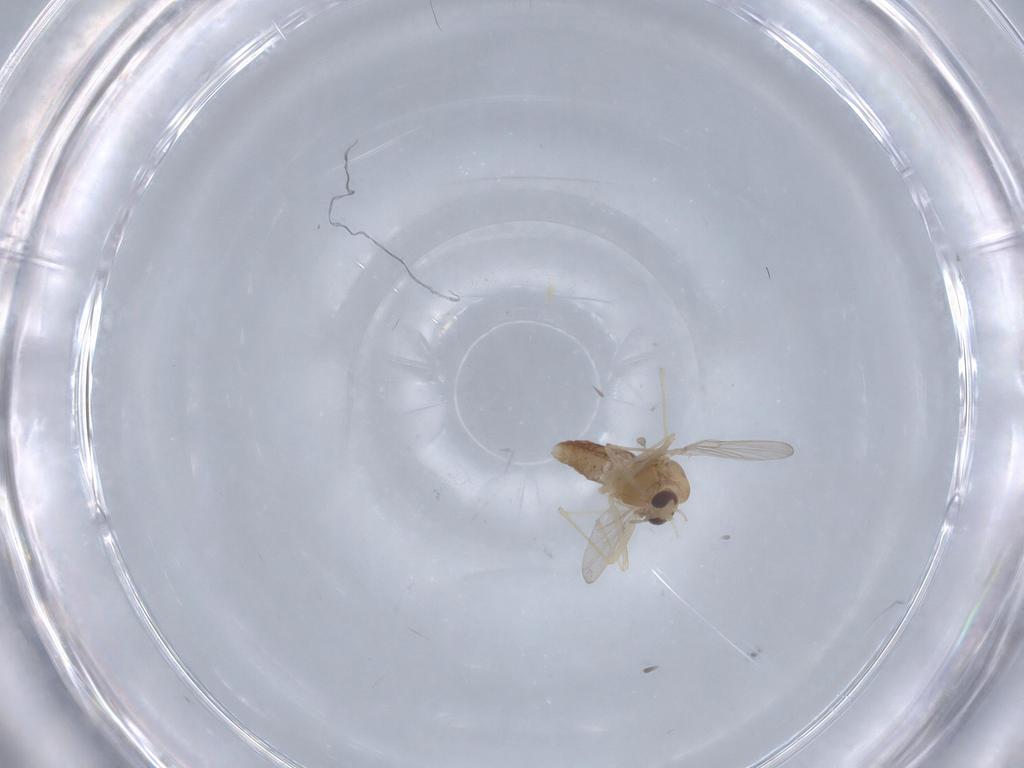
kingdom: Animalia
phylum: Arthropoda
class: Insecta
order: Diptera
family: Chironomidae
